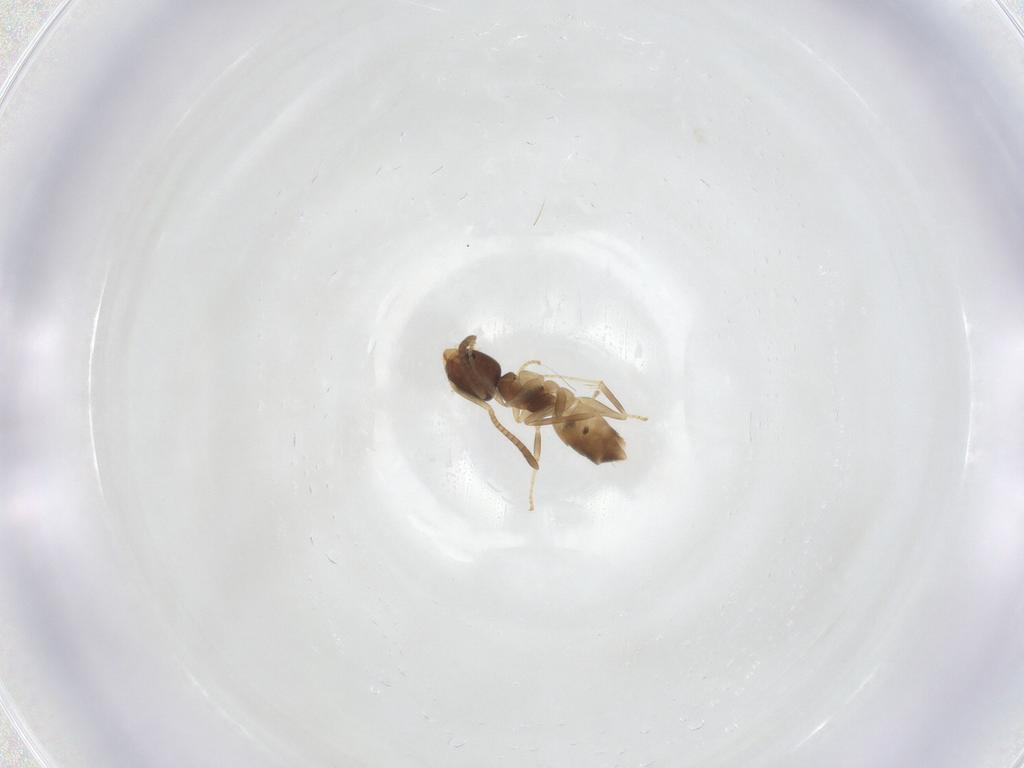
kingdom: Animalia
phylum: Arthropoda
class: Insecta
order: Hymenoptera
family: Formicidae
